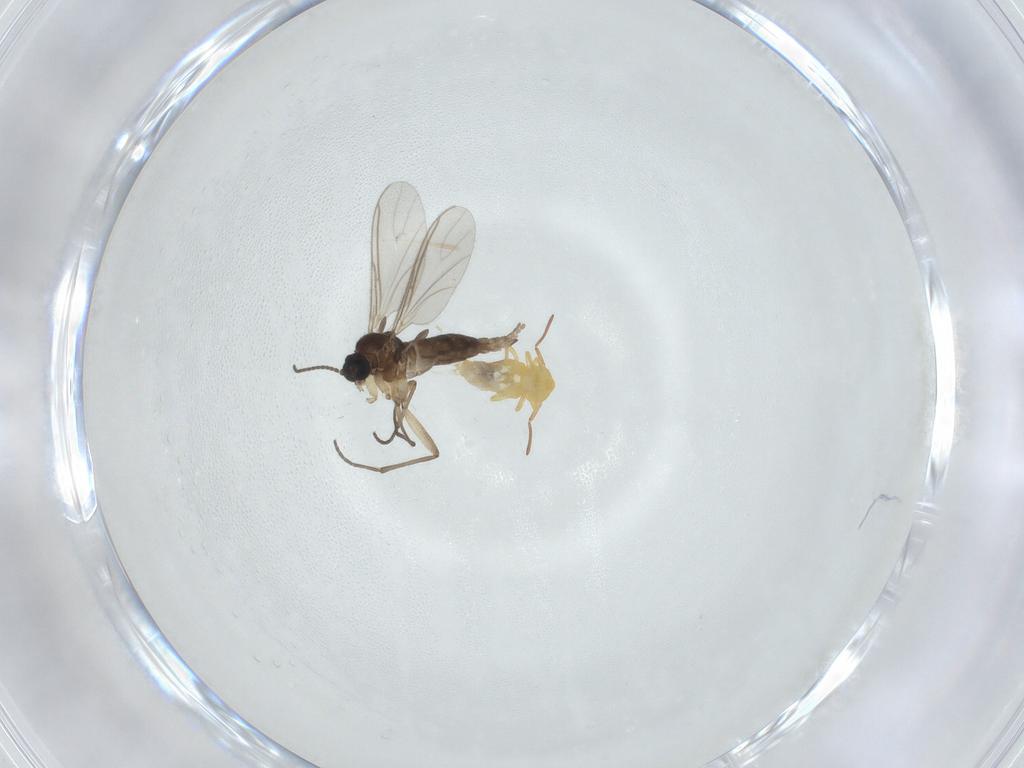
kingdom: Animalia
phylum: Arthropoda
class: Insecta
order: Diptera
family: Sciaridae
